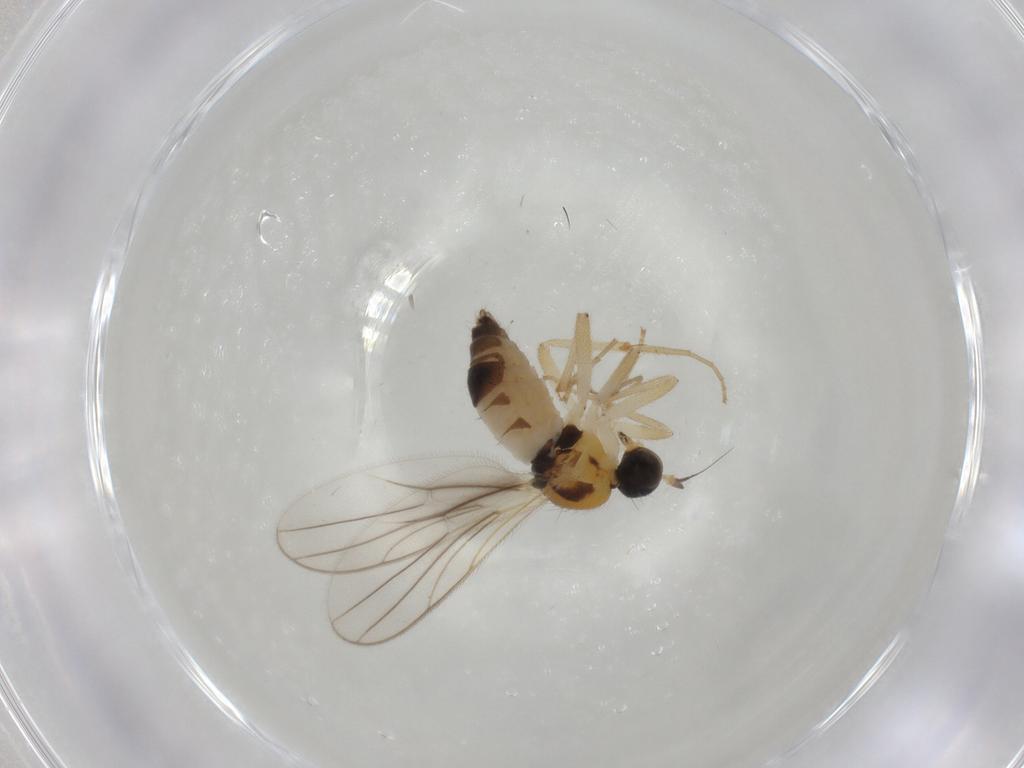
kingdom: Animalia
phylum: Arthropoda
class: Insecta
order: Diptera
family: Hybotidae
